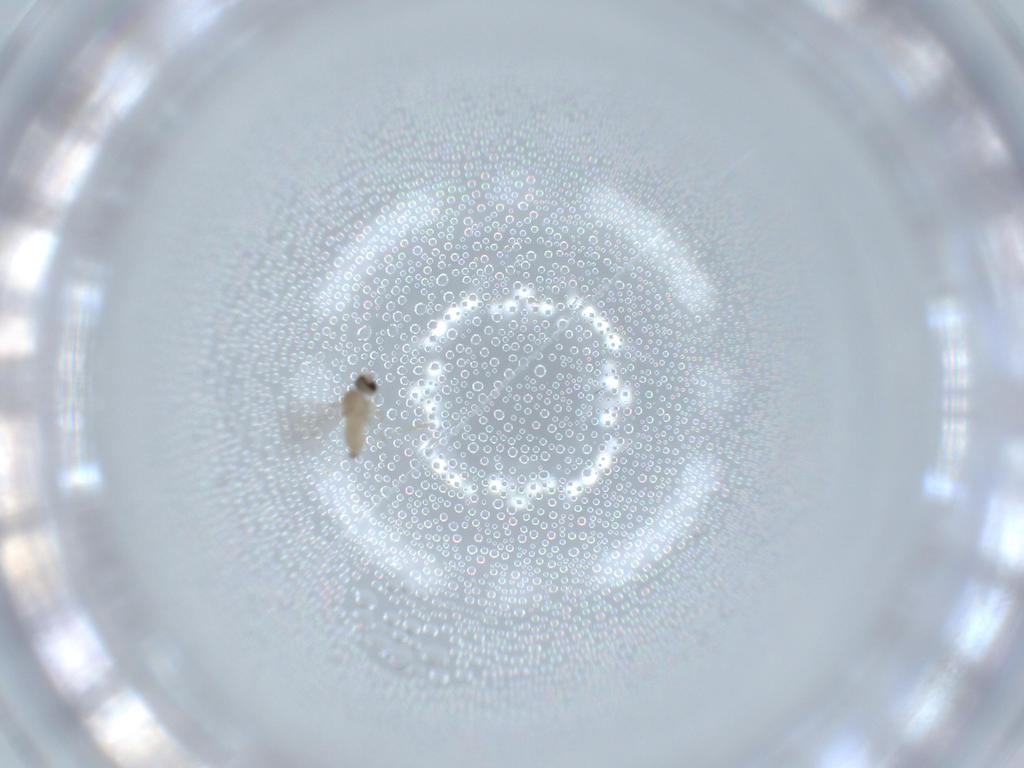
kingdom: Animalia
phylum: Arthropoda
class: Insecta
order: Diptera
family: Cecidomyiidae
